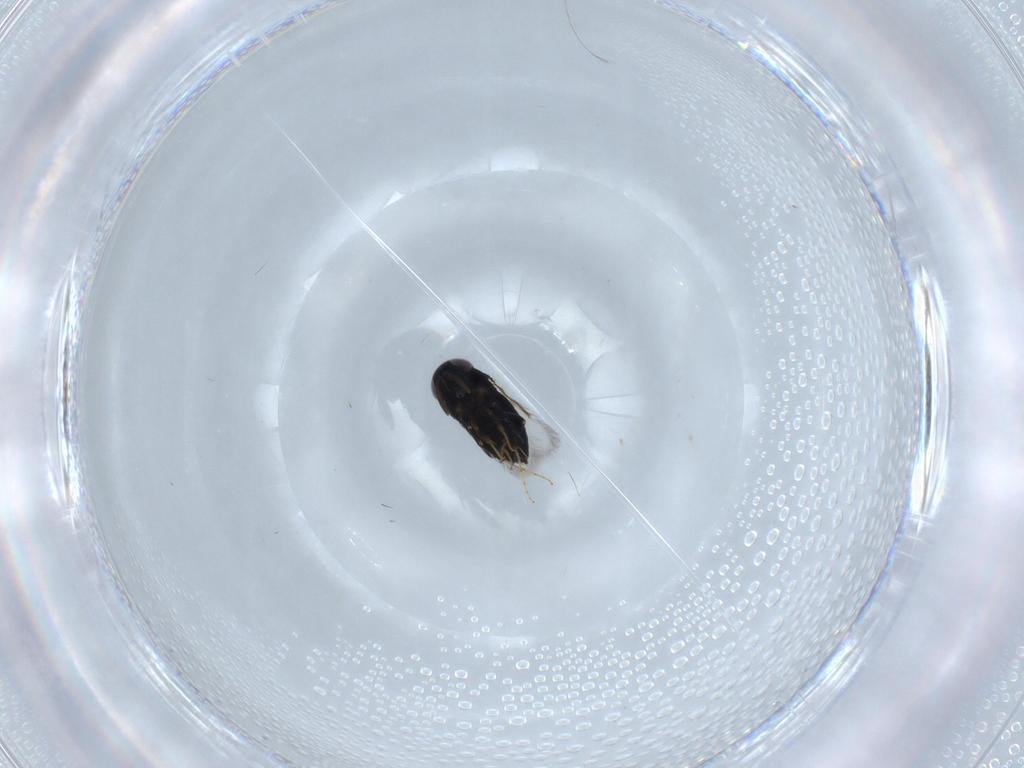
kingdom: Animalia
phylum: Arthropoda
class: Insecta
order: Hymenoptera
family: Signiphoridae
